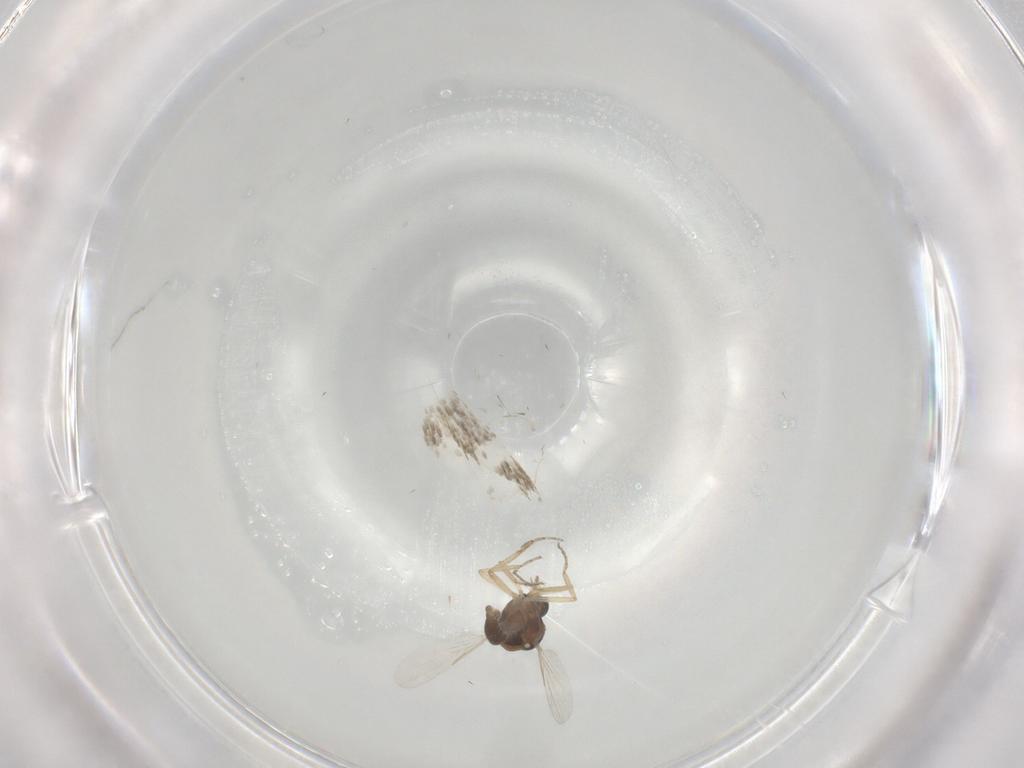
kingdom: Animalia
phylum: Arthropoda
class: Insecta
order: Diptera
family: Ceratopogonidae
